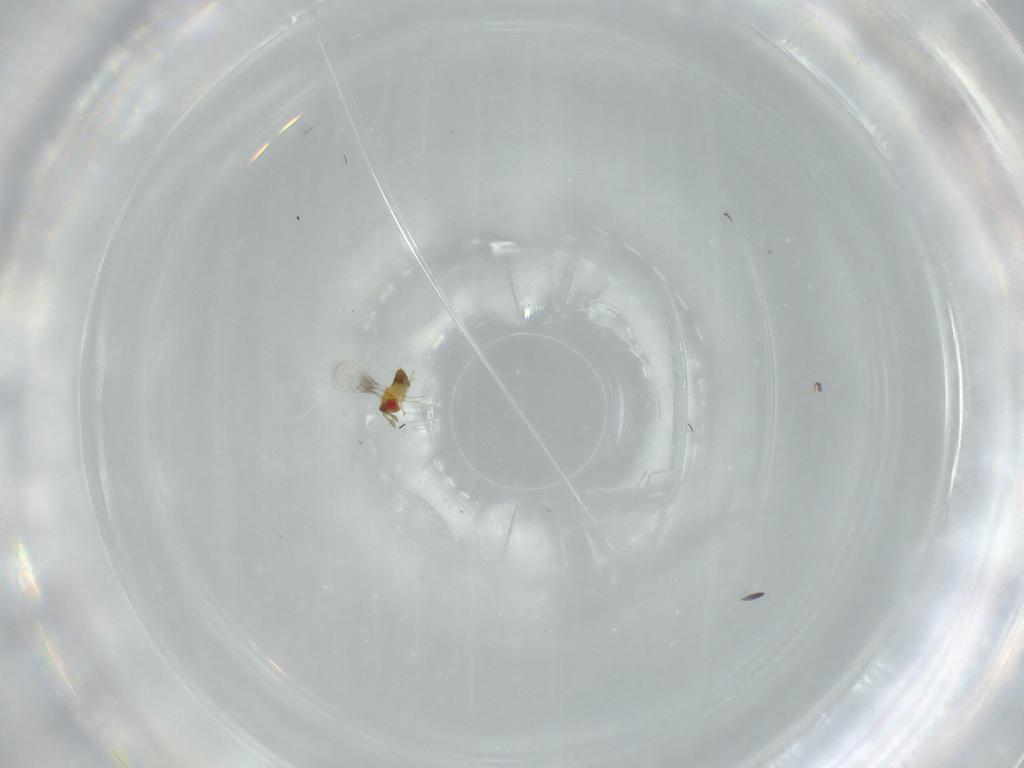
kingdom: Animalia
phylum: Arthropoda
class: Insecta
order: Hymenoptera
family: Trichogrammatidae
